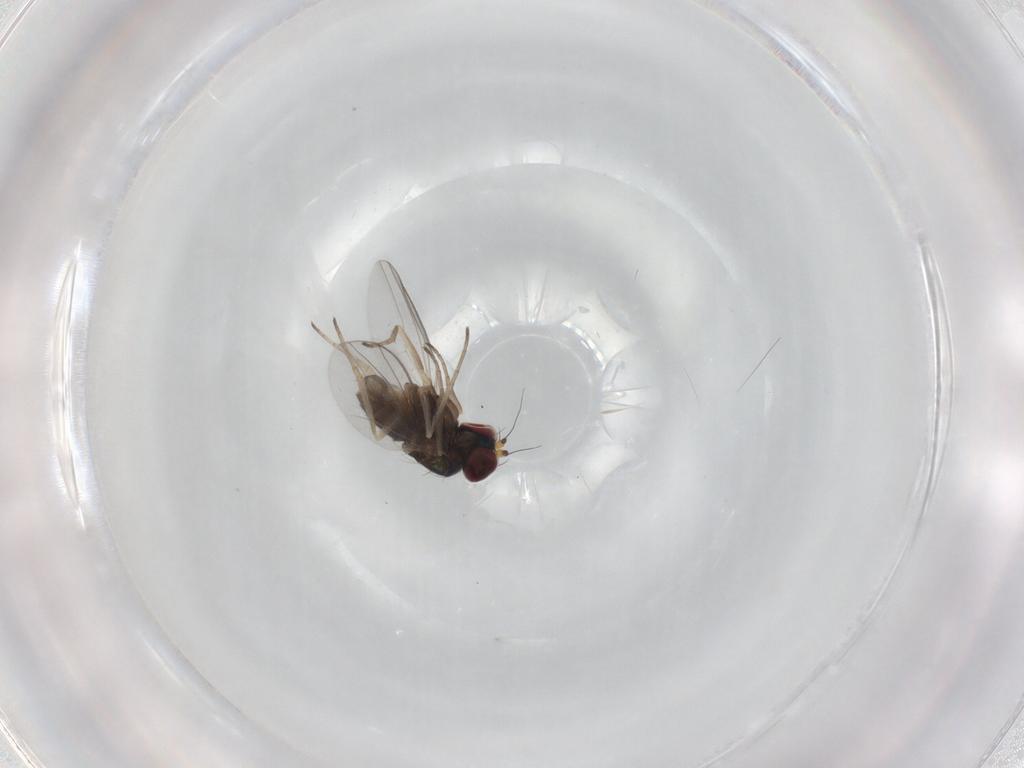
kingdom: Animalia
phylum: Arthropoda
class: Insecta
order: Diptera
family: Dolichopodidae
